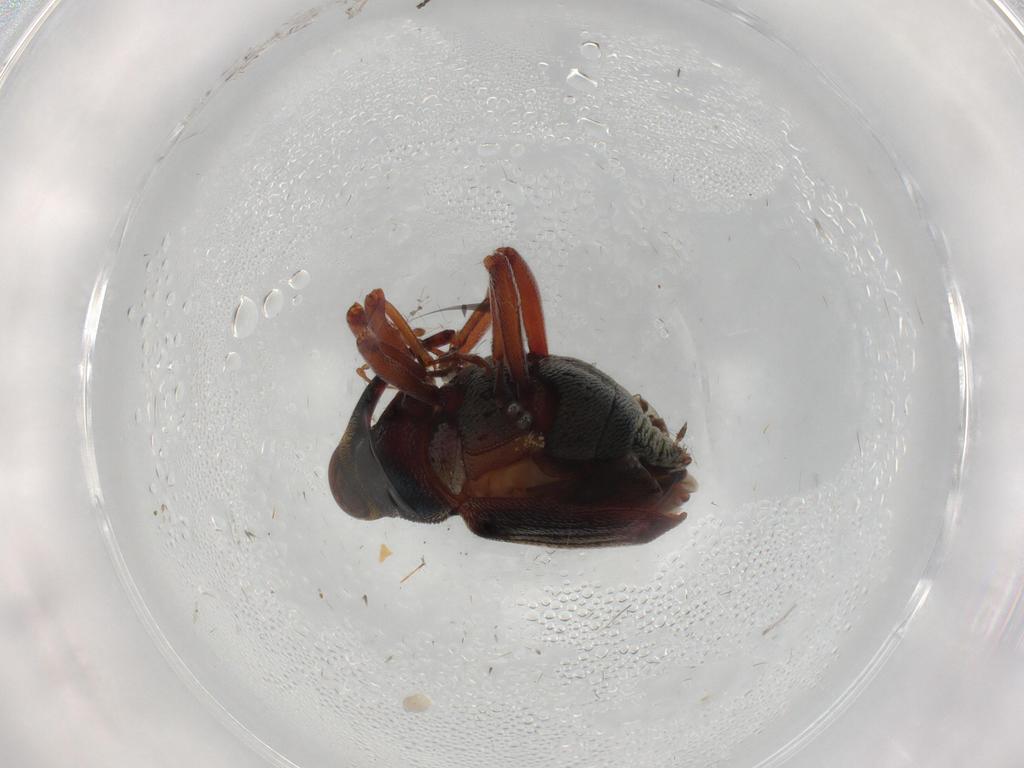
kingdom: Animalia
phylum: Arthropoda
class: Insecta
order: Coleoptera
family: Curculionidae
